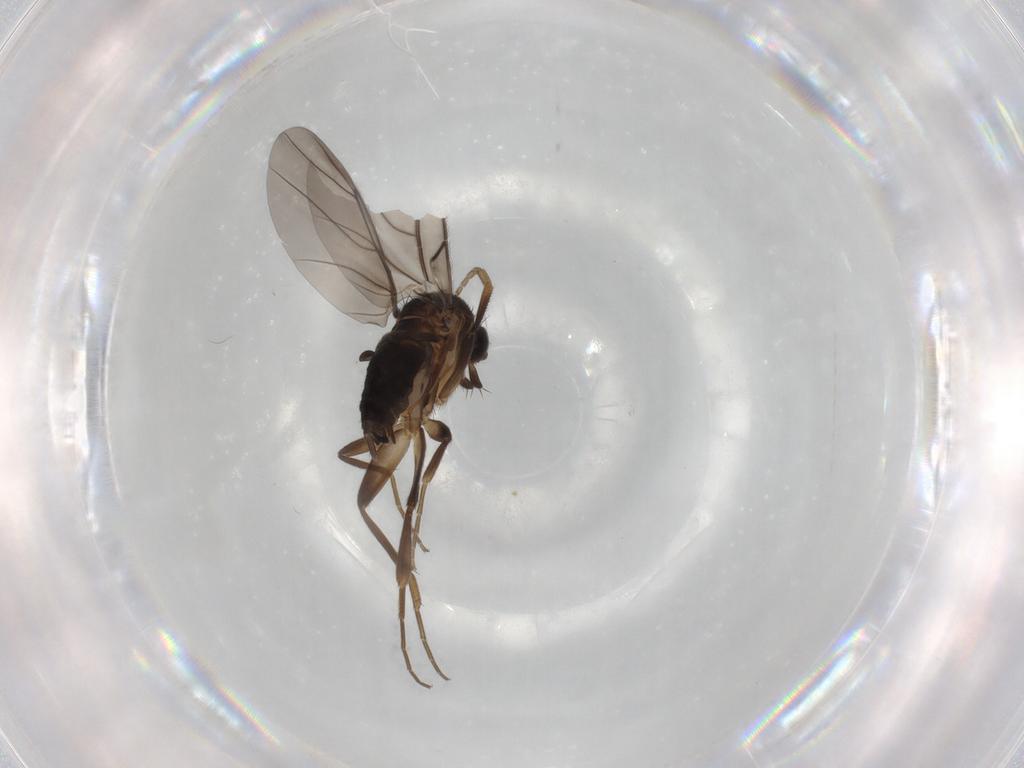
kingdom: Animalia
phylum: Arthropoda
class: Insecta
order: Diptera
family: Phoridae
